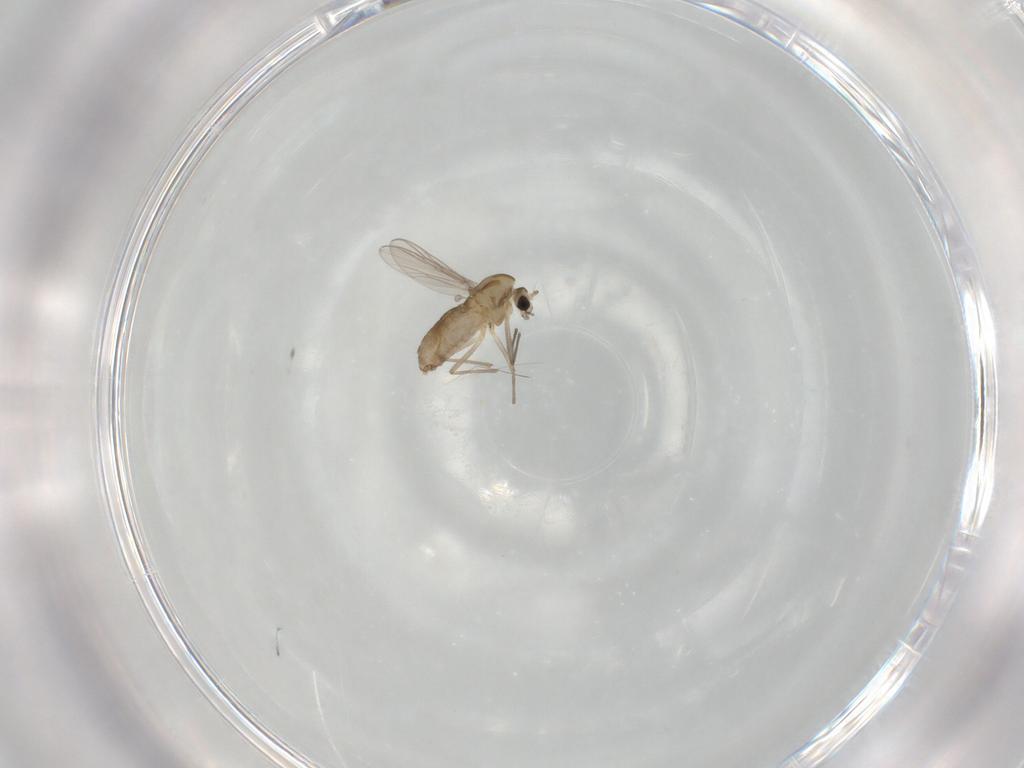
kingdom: Animalia
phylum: Arthropoda
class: Insecta
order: Diptera
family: Chironomidae
